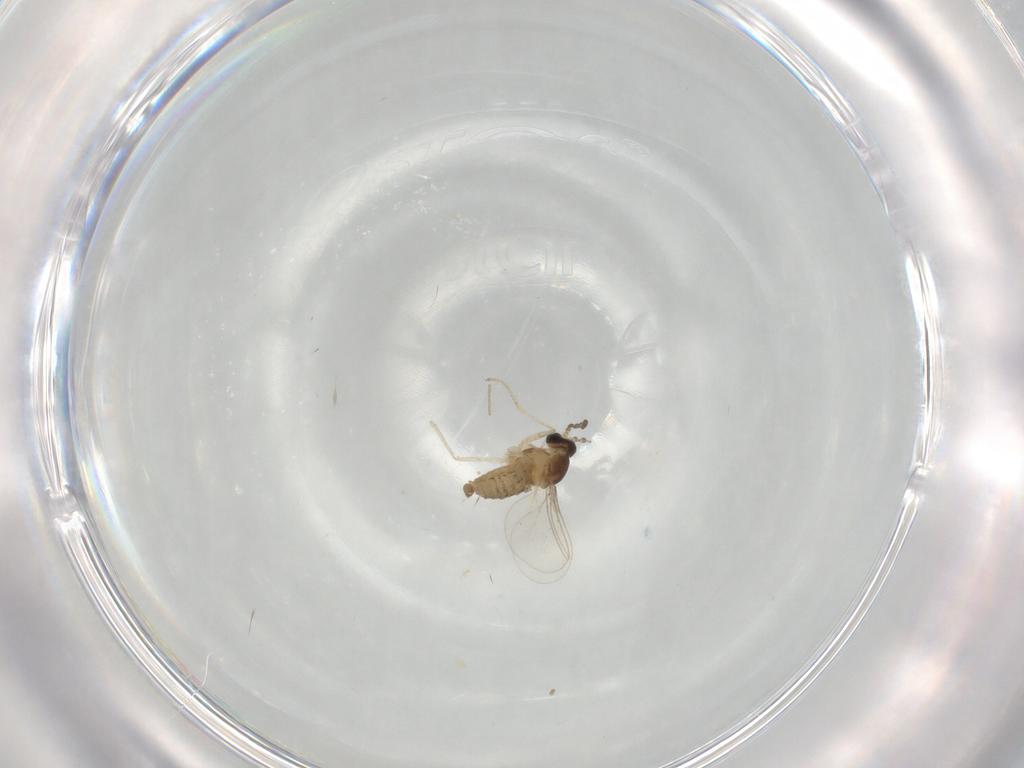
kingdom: Animalia
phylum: Arthropoda
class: Insecta
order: Diptera
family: Cecidomyiidae
